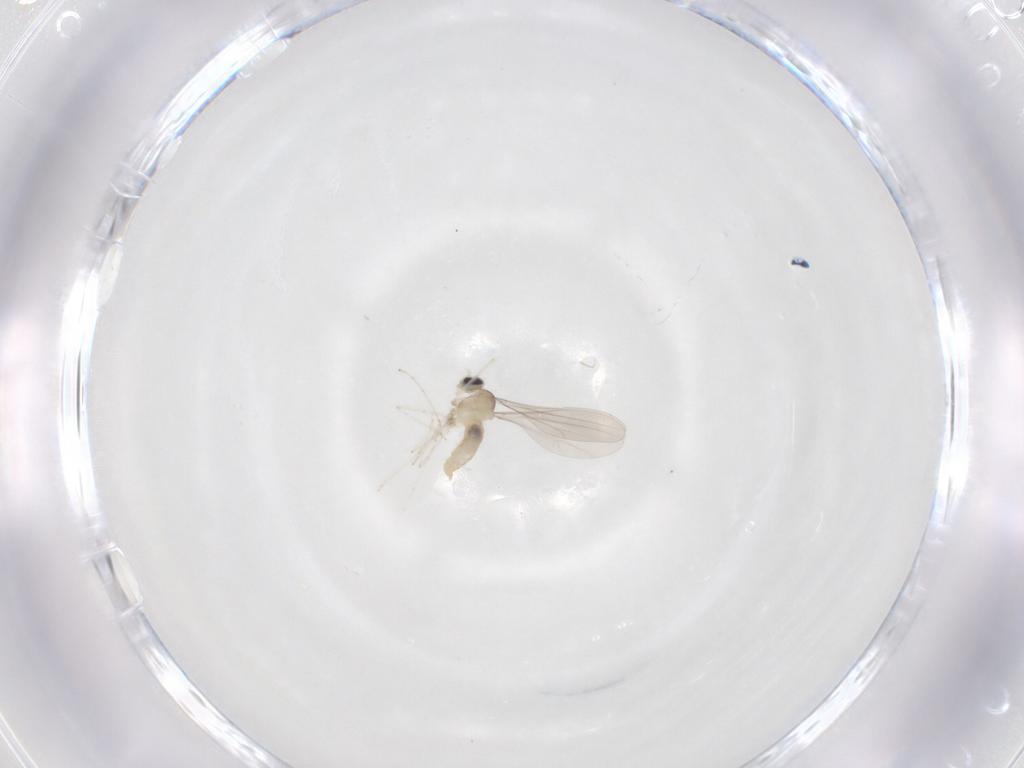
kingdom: Animalia
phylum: Arthropoda
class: Insecta
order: Diptera
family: Cecidomyiidae
